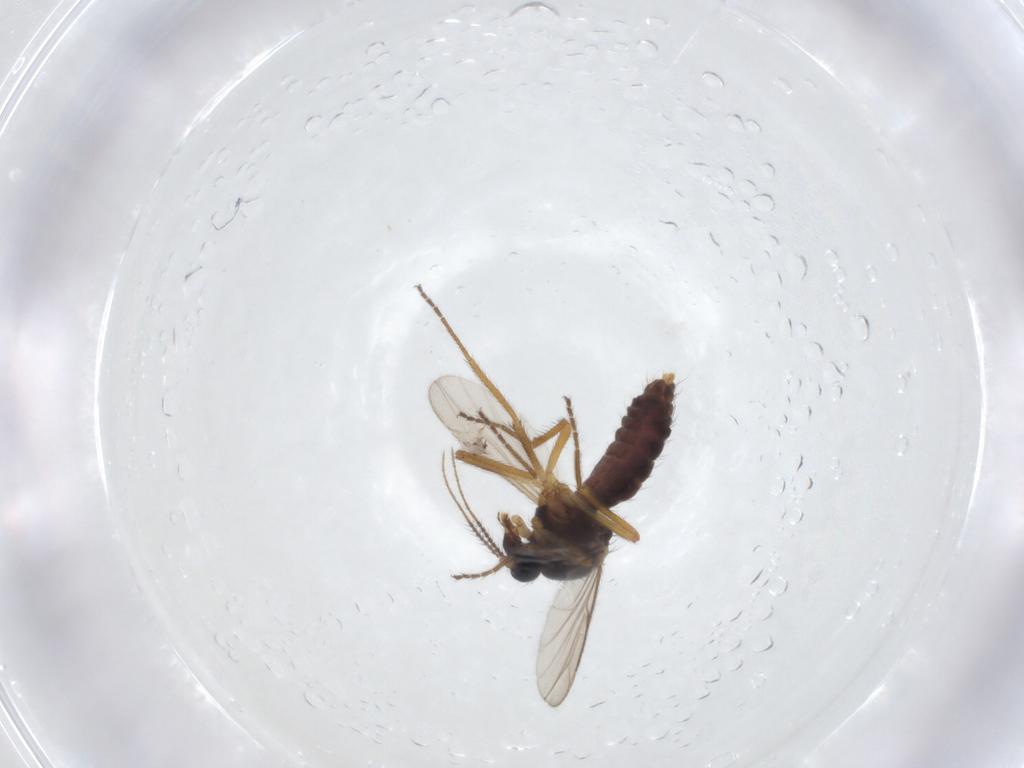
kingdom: Animalia
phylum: Arthropoda
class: Insecta
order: Diptera
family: Ceratopogonidae
